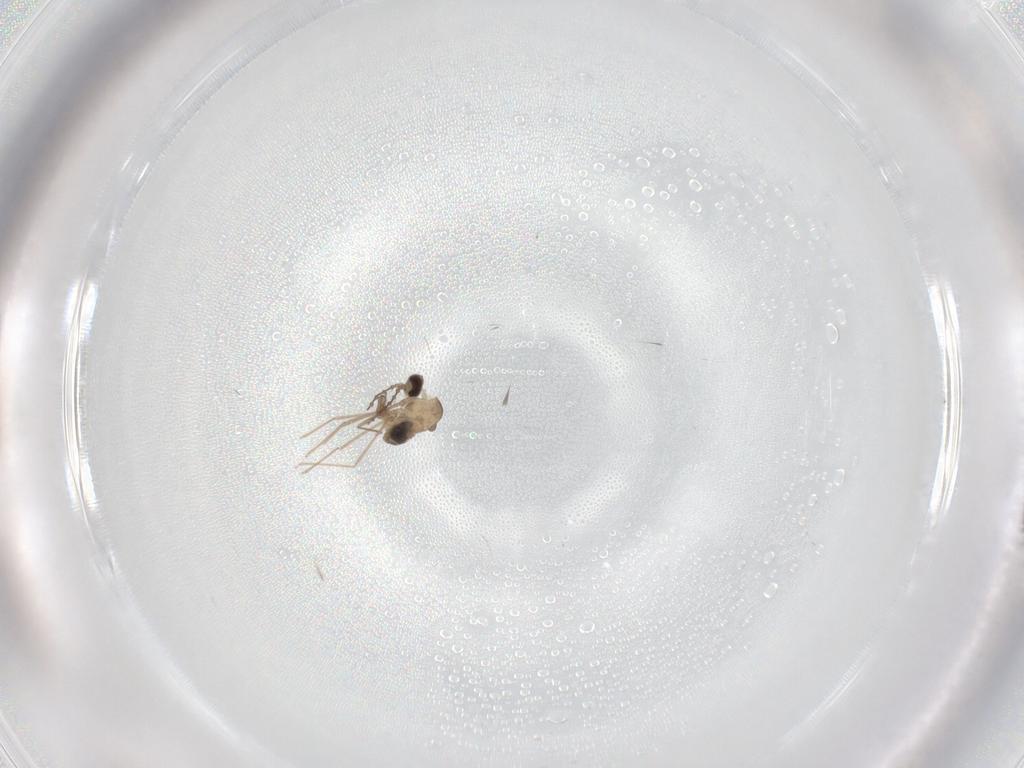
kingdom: Animalia
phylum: Arthropoda
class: Insecta
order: Diptera
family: Cecidomyiidae
